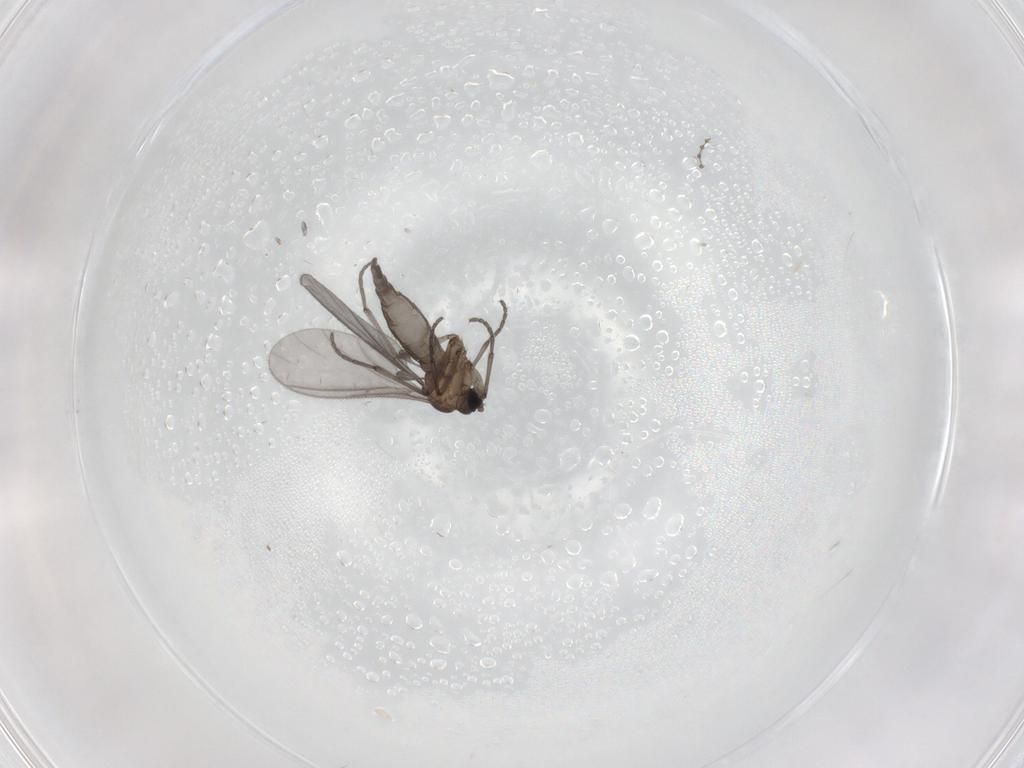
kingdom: Animalia
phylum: Arthropoda
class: Insecta
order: Diptera
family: Sciaridae
